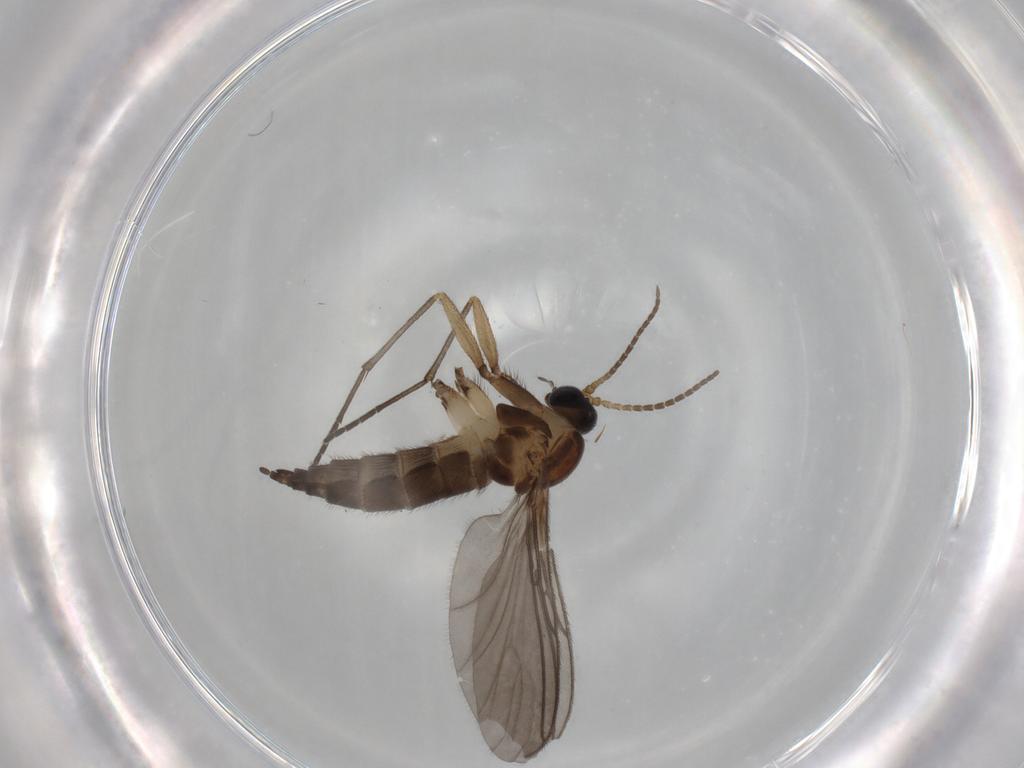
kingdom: Animalia
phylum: Arthropoda
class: Insecta
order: Diptera
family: Sciaridae
